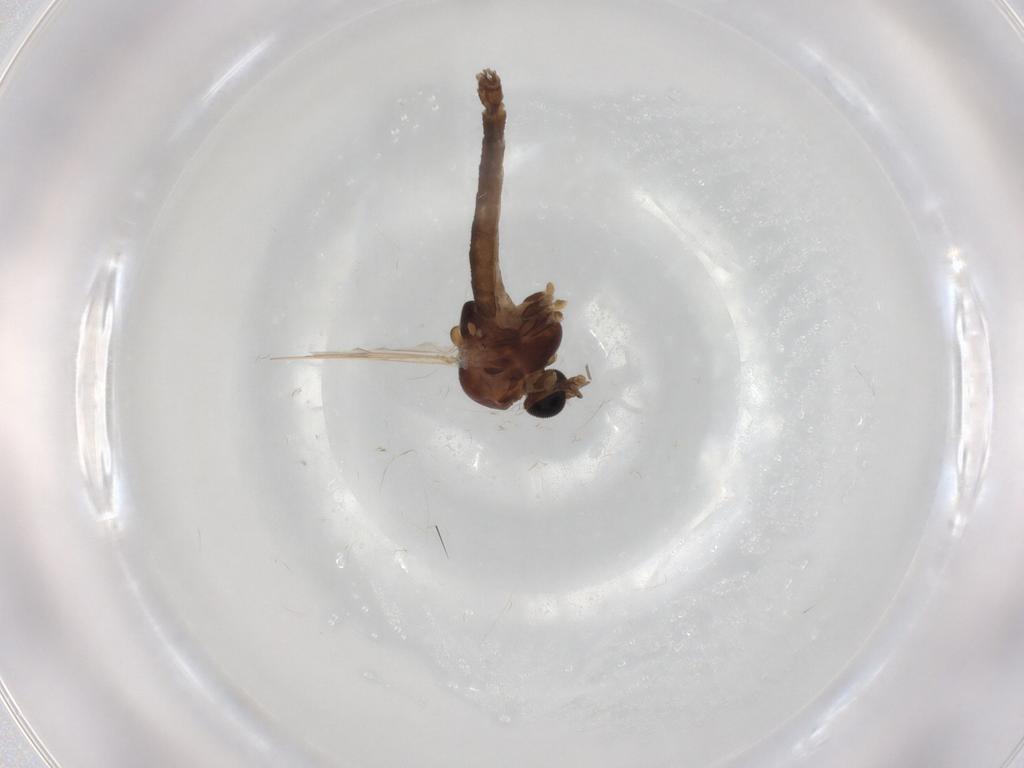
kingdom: Animalia
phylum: Arthropoda
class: Insecta
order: Diptera
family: Chironomidae
